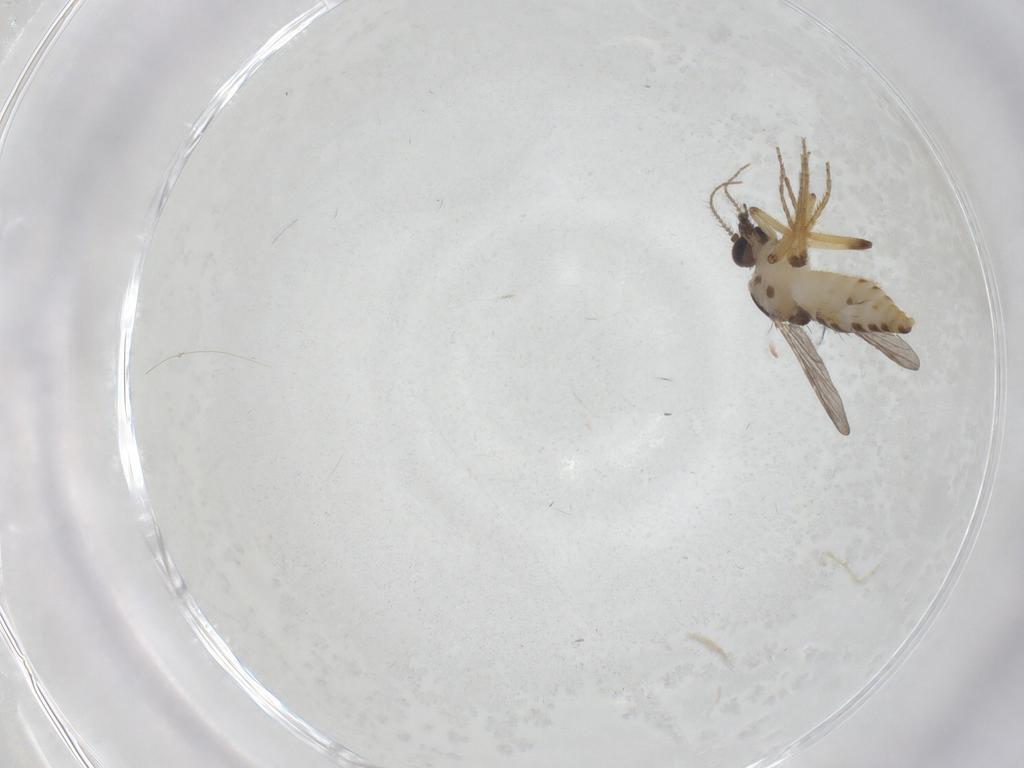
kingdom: Animalia
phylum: Arthropoda
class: Insecta
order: Diptera
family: Ceratopogonidae
